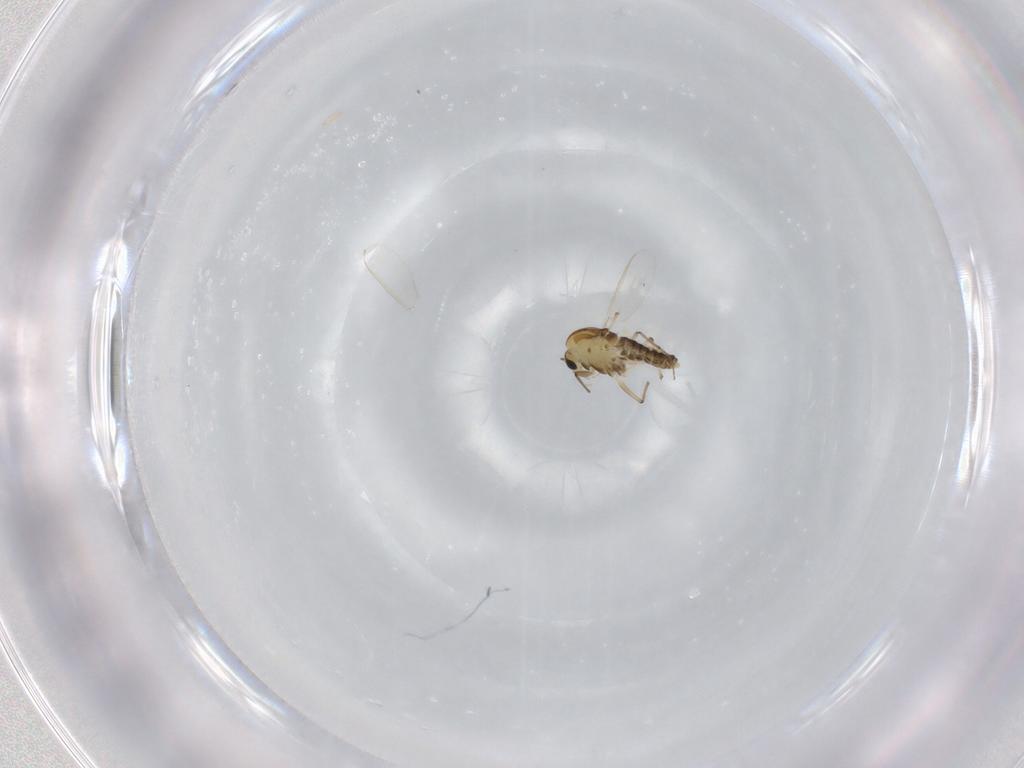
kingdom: Animalia
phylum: Arthropoda
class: Insecta
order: Diptera
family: Chironomidae
